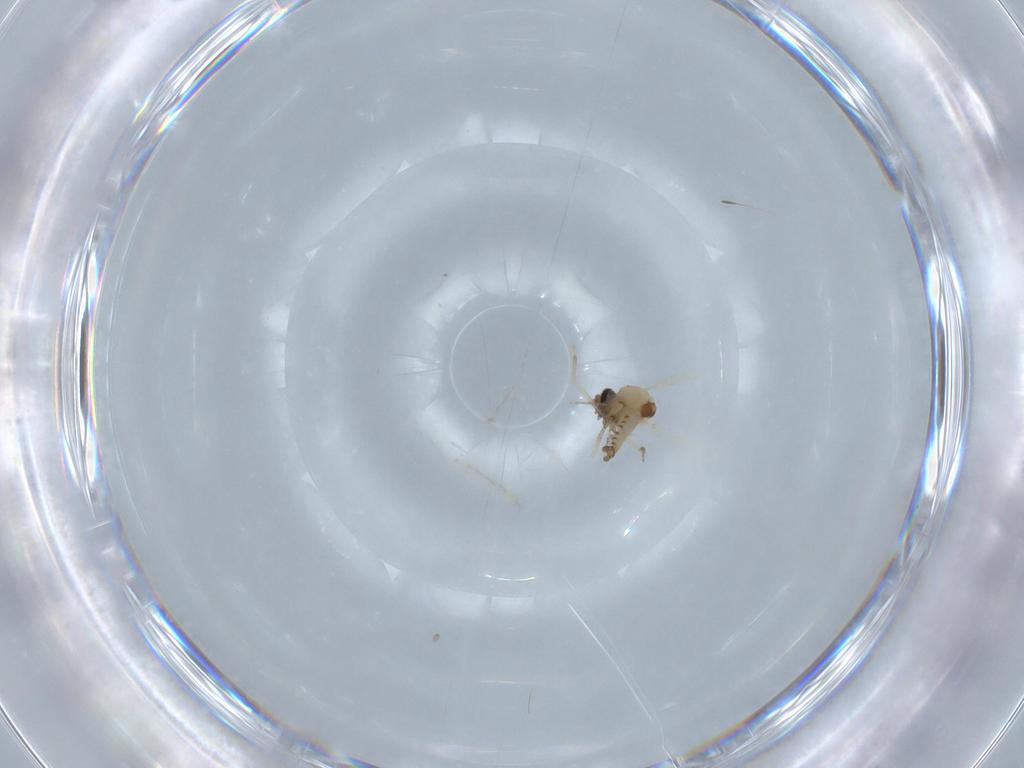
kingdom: Animalia
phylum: Arthropoda
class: Insecta
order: Diptera
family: Ceratopogonidae
